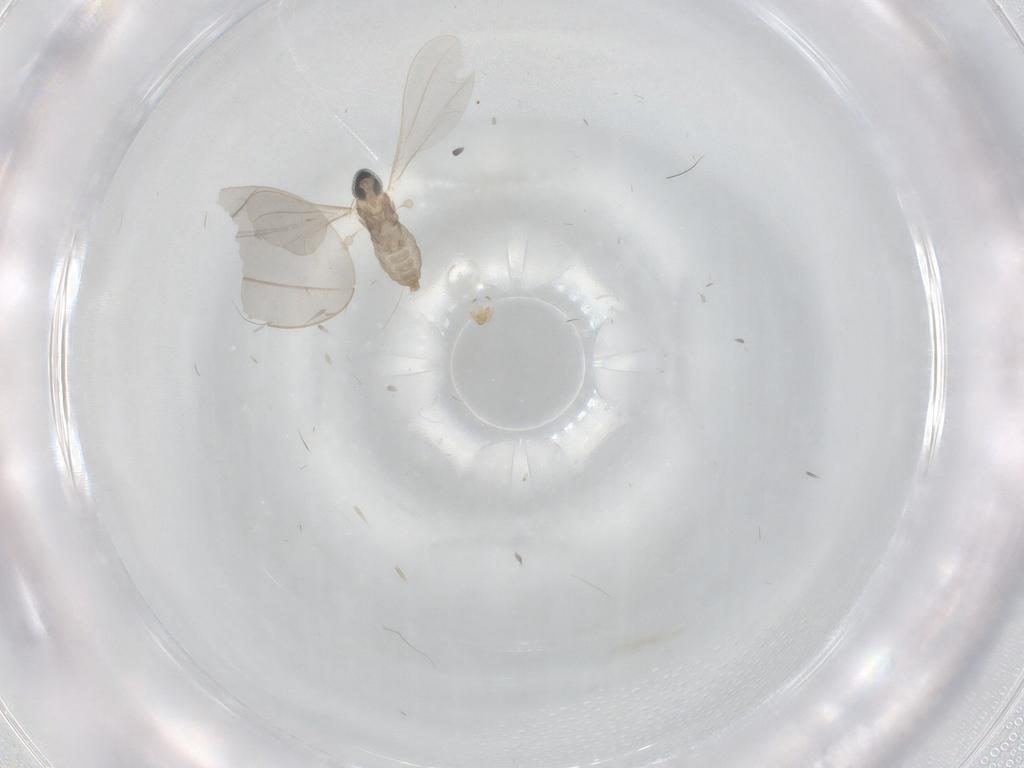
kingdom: Animalia
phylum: Arthropoda
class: Insecta
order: Diptera
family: Cecidomyiidae
